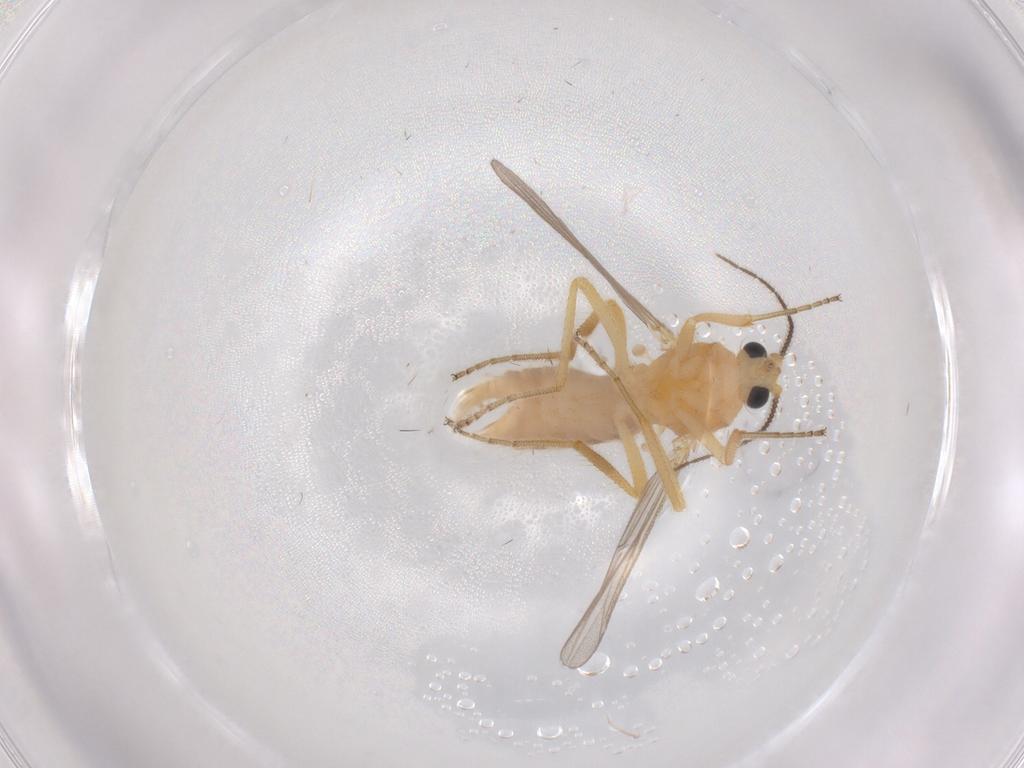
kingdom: Animalia
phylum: Arthropoda
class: Insecta
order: Diptera
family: Ceratopogonidae
